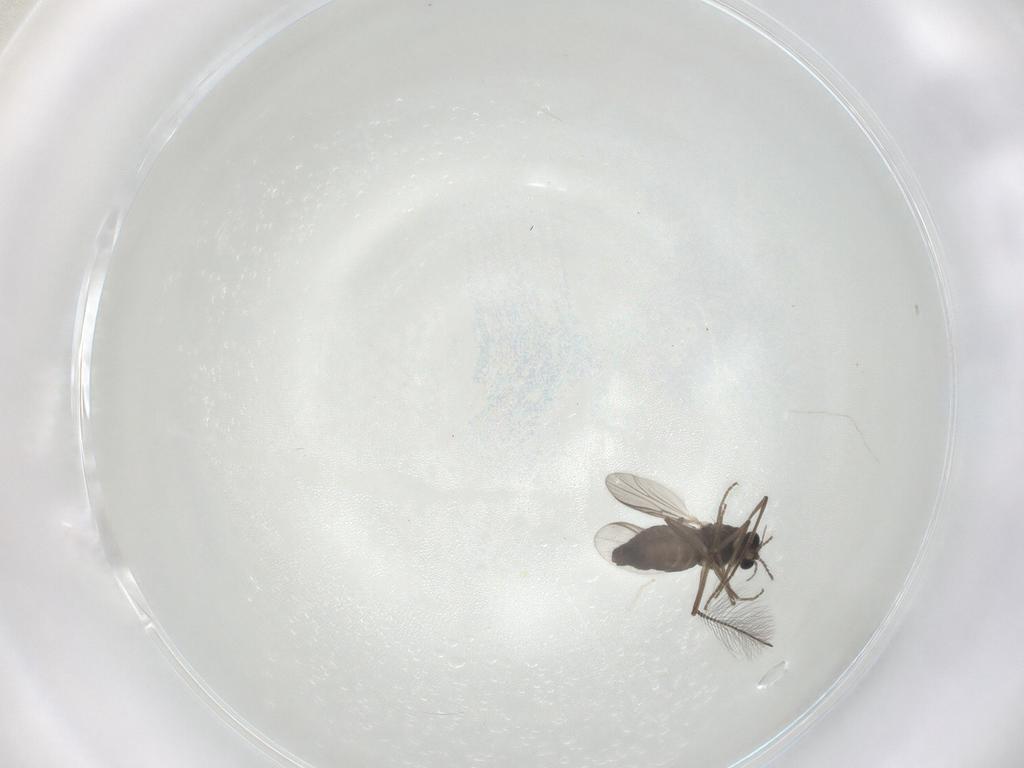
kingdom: Animalia
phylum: Arthropoda
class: Insecta
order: Diptera
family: Chironomidae
